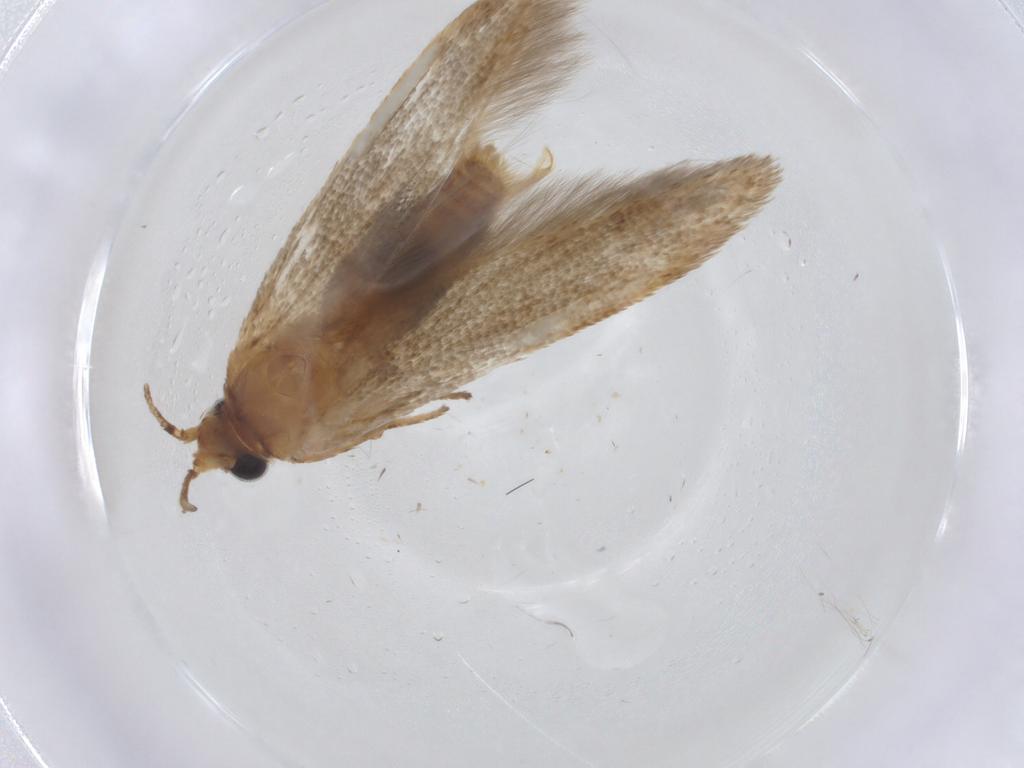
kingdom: Animalia
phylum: Arthropoda
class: Insecta
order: Lepidoptera
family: Blastobasidae
